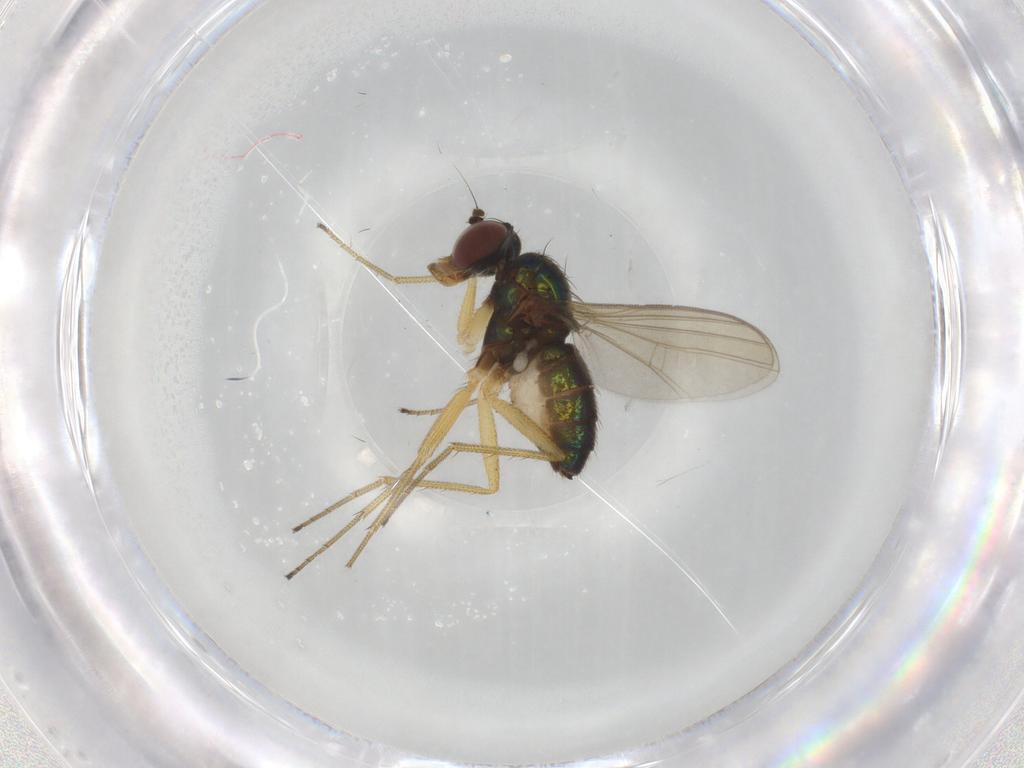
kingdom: Animalia
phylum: Arthropoda
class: Insecta
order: Diptera
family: Dolichopodidae
